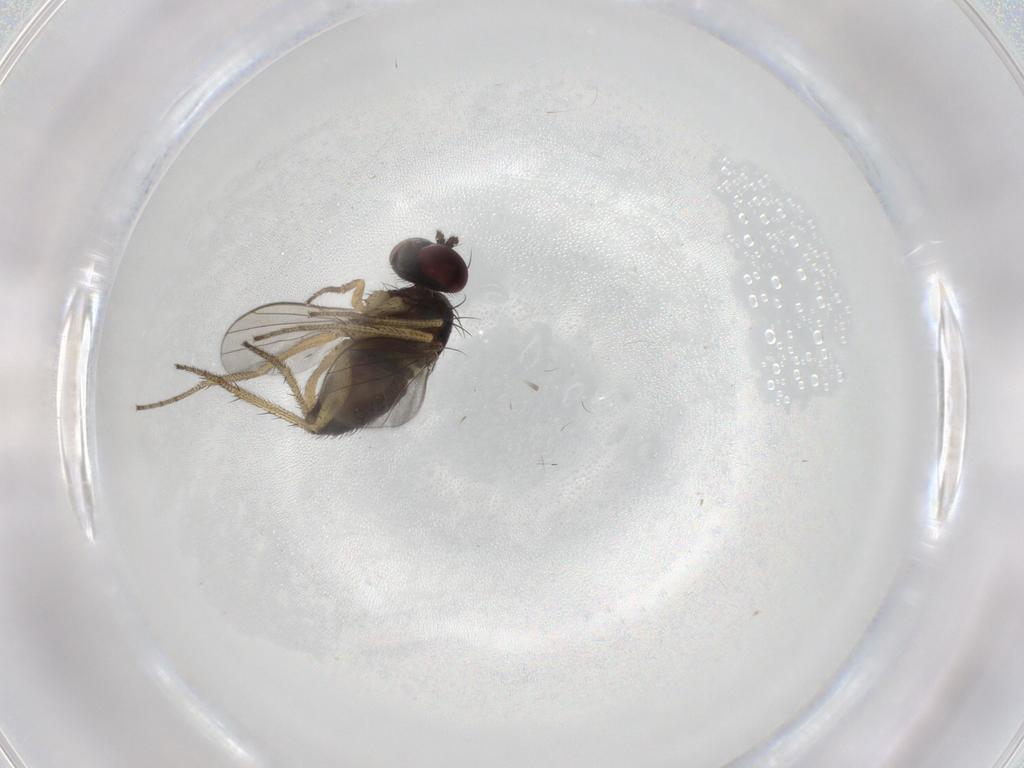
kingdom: Animalia
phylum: Arthropoda
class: Insecta
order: Diptera
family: Dolichopodidae
